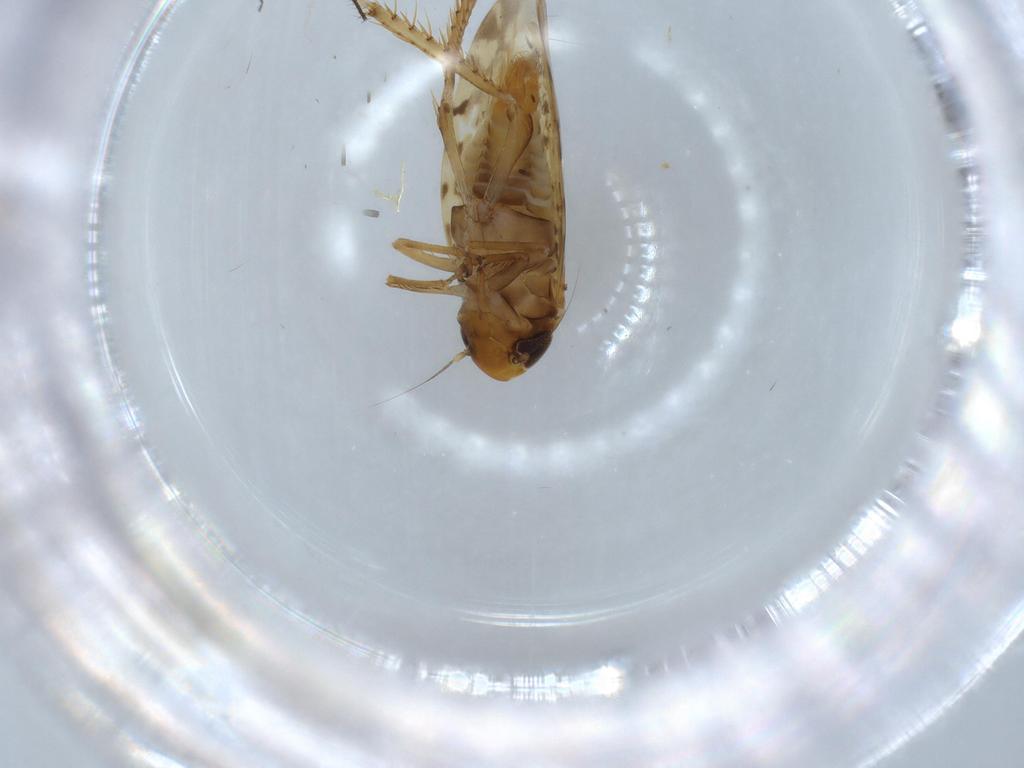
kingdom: Animalia
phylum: Arthropoda
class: Insecta
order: Hemiptera
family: Cicadellidae
